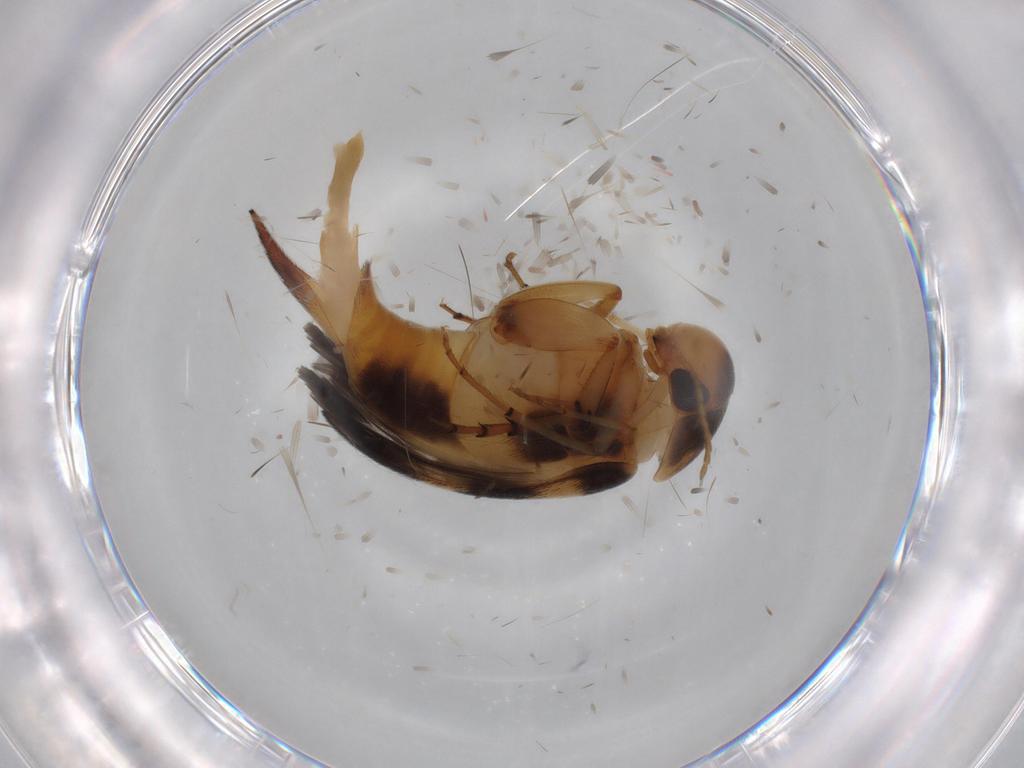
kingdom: Animalia
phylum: Arthropoda
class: Insecta
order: Coleoptera
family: Mordellidae
